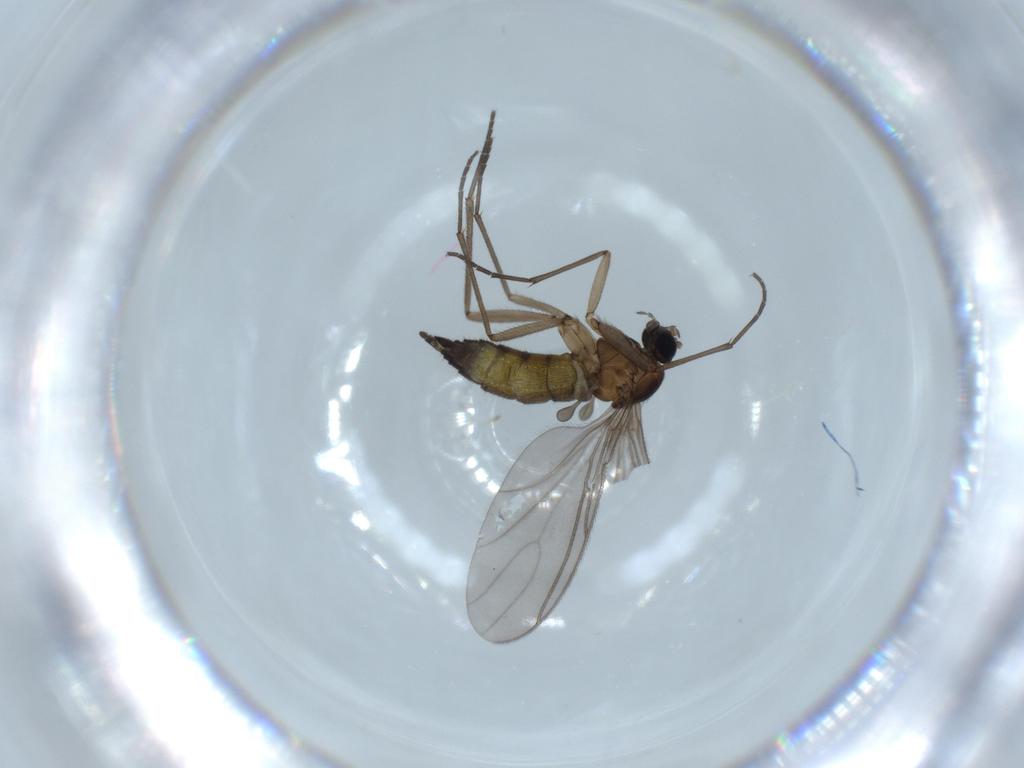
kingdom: Animalia
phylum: Arthropoda
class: Insecta
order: Diptera
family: Sciaridae
